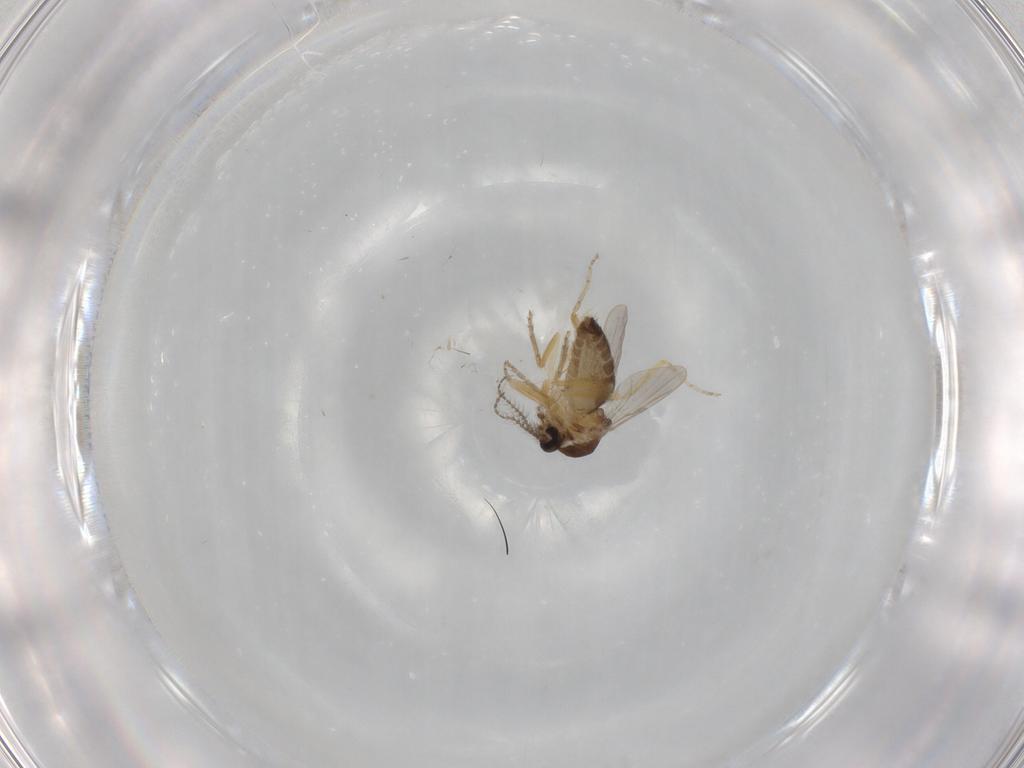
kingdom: Animalia
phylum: Arthropoda
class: Insecta
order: Diptera
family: Ceratopogonidae
